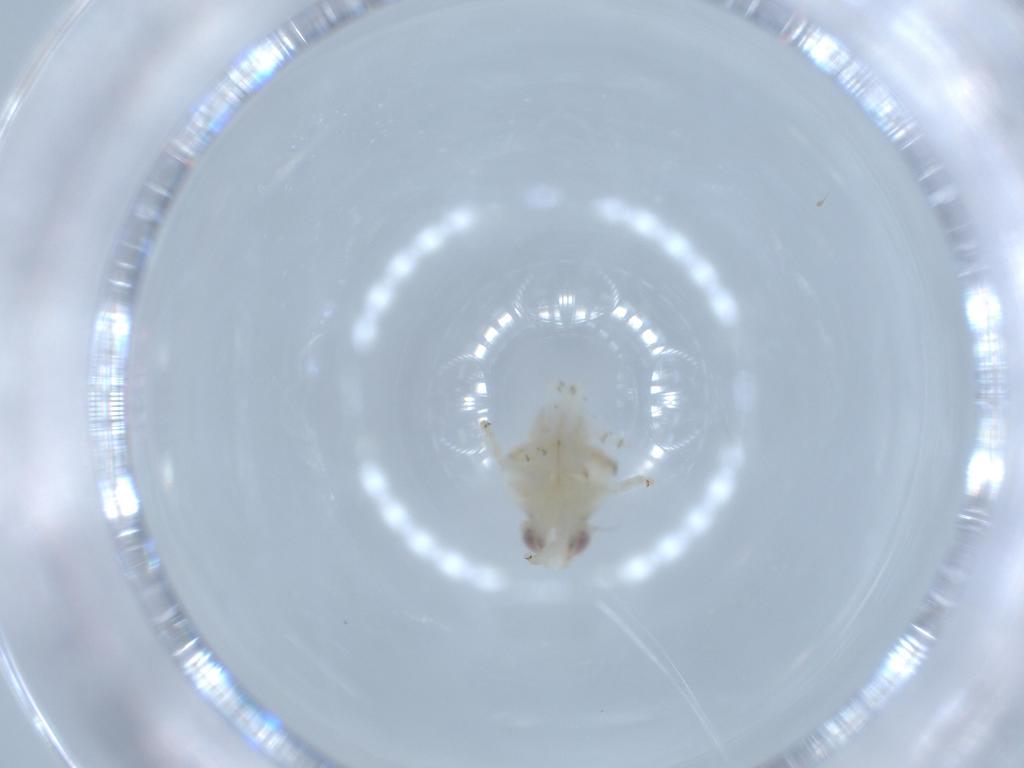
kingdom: Animalia
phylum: Arthropoda
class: Insecta
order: Hemiptera
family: Nogodinidae
